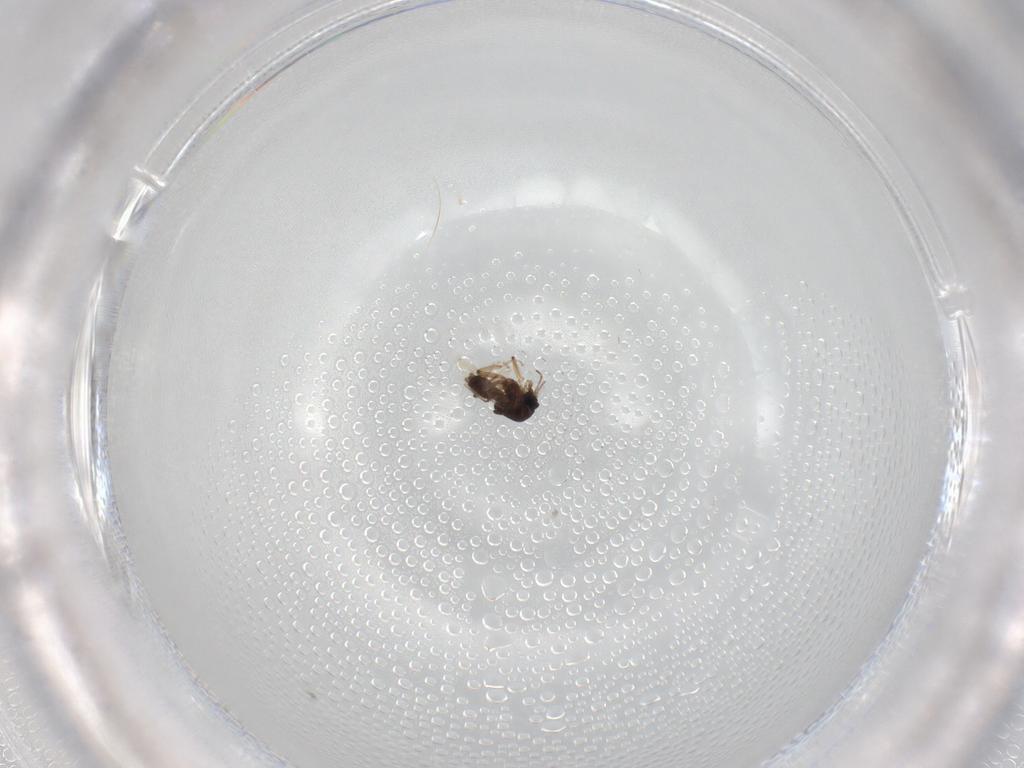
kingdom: Animalia
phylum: Arthropoda
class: Insecta
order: Diptera
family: Ceratopogonidae
